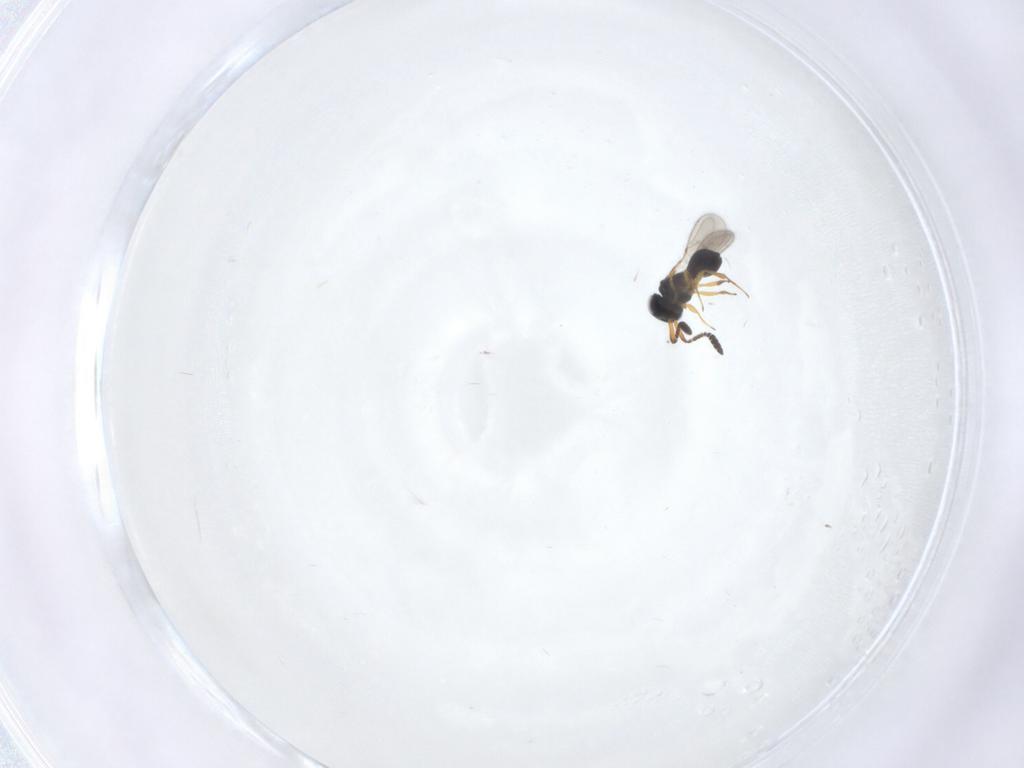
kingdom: Animalia
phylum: Arthropoda
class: Insecta
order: Hymenoptera
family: Scelionidae
